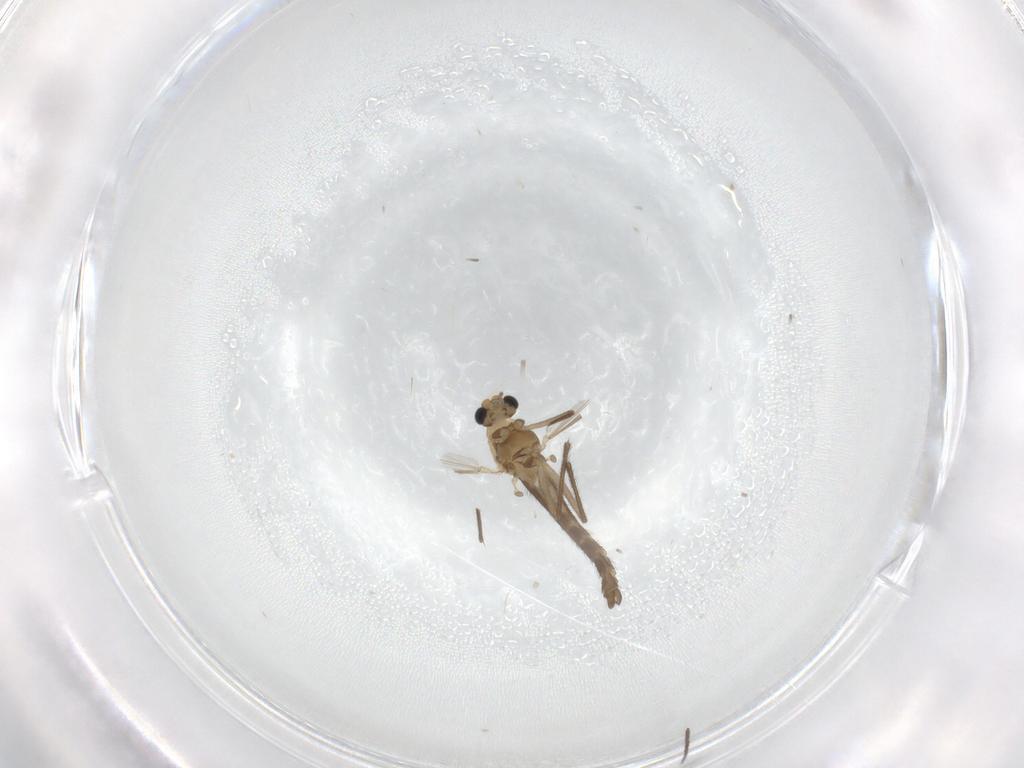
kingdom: Animalia
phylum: Arthropoda
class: Insecta
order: Diptera
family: Chironomidae
